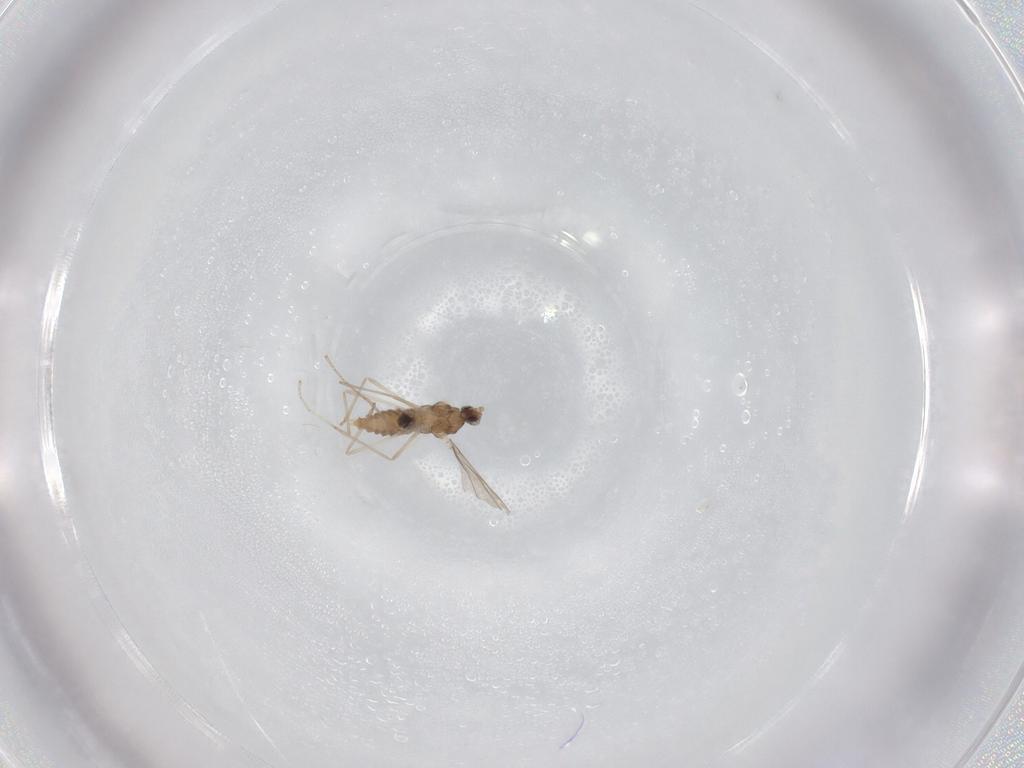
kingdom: Animalia
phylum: Arthropoda
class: Insecta
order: Diptera
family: Cecidomyiidae
